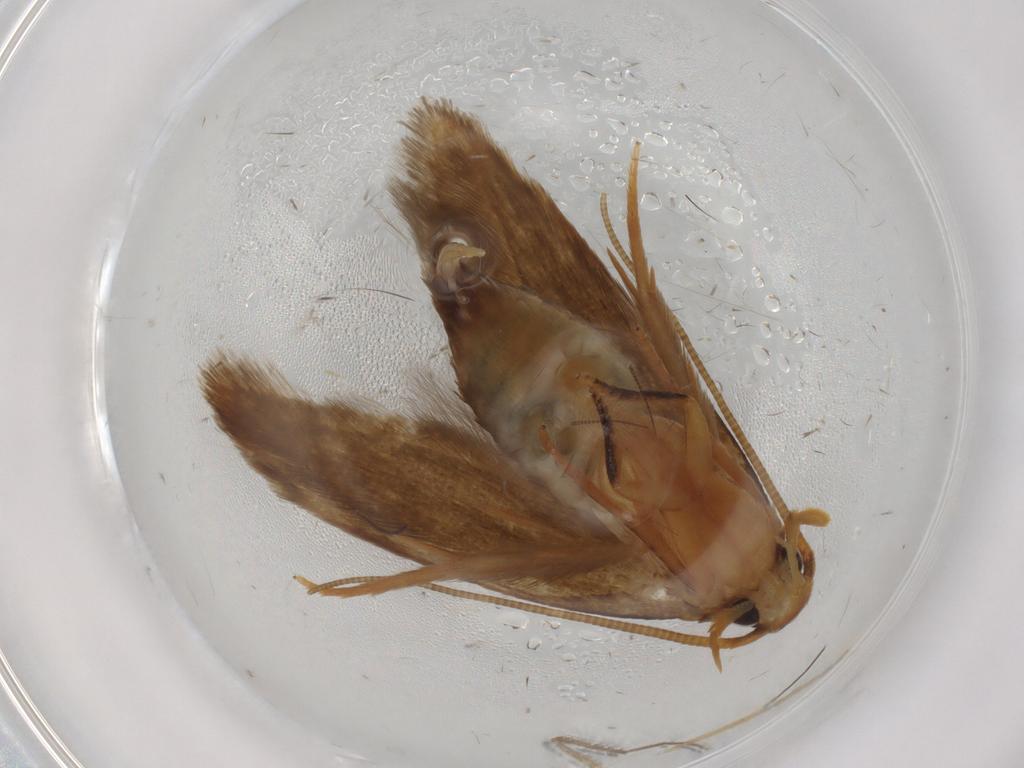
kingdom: Animalia
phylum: Arthropoda
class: Insecta
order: Lepidoptera
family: Tineidae
